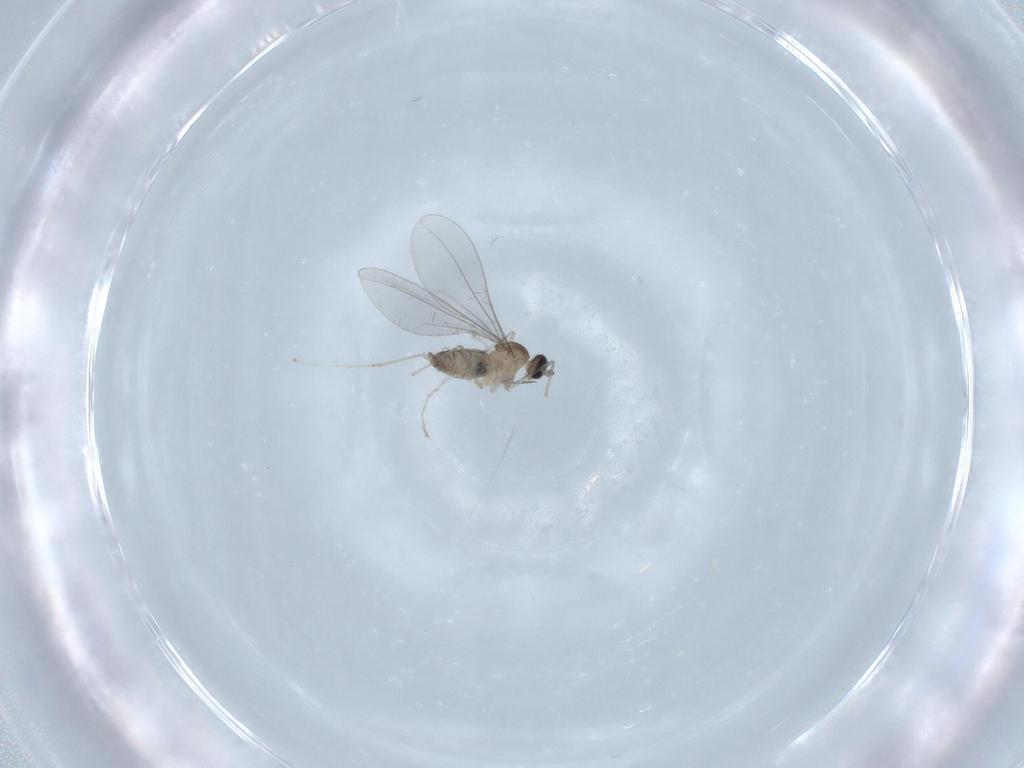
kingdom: Animalia
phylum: Arthropoda
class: Insecta
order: Diptera
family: Cecidomyiidae
